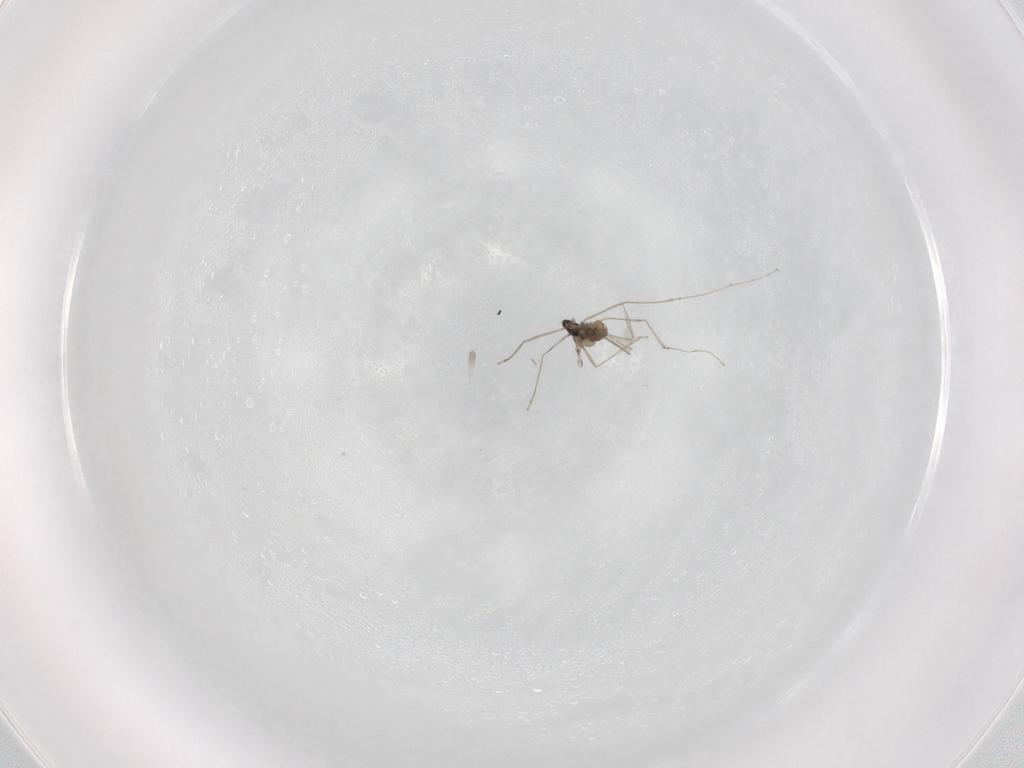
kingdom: Animalia
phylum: Arthropoda
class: Insecta
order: Diptera
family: Cecidomyiidae
